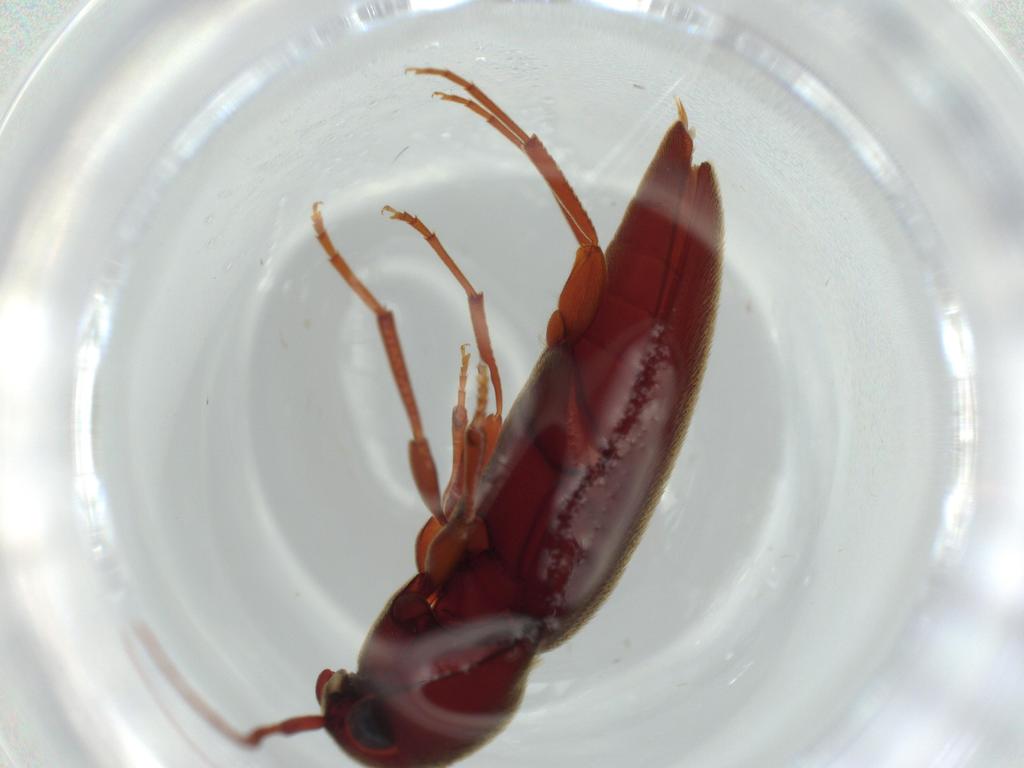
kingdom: Animalia
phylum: Arthropoda
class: Insecta
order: Coleoptera
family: Eucnemidae
